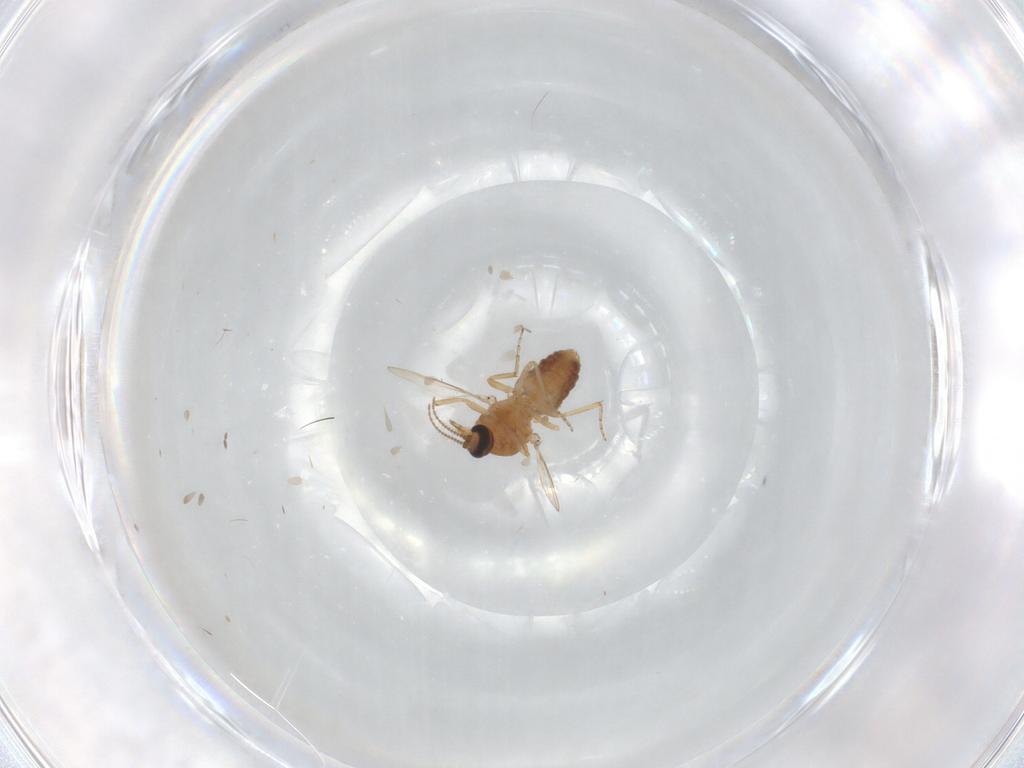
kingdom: Animalia
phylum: Arthropoda
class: Insecta
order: Diptera
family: Ceratopogonidae
